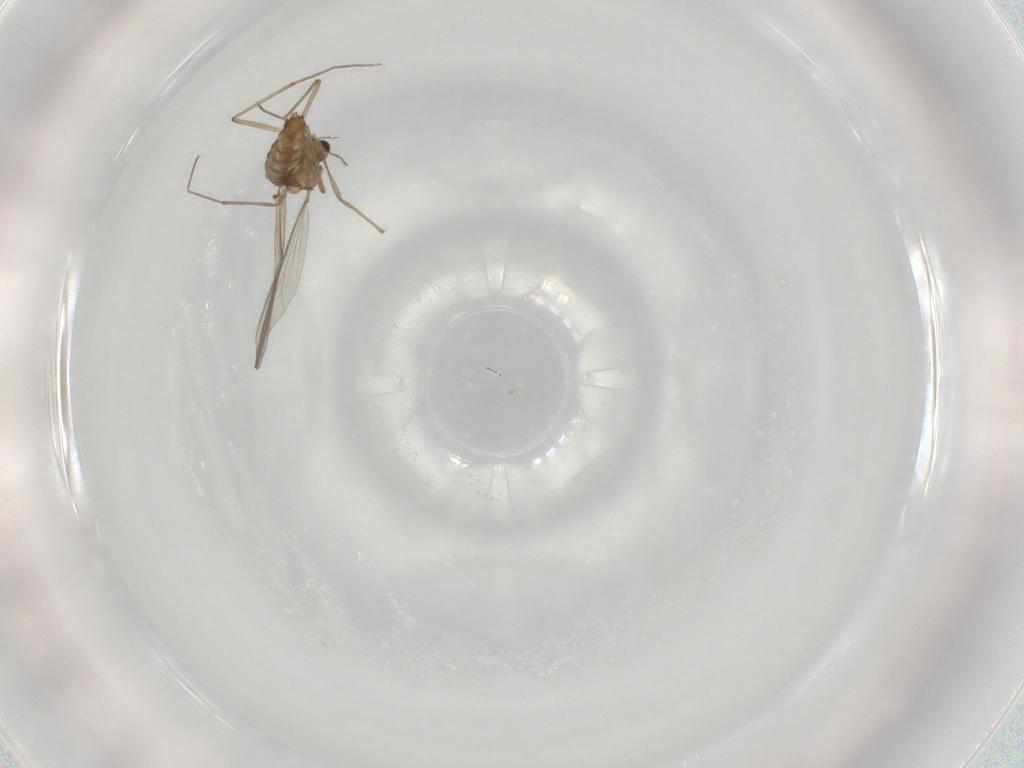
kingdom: Animalia
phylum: Arthropoda
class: Insecta
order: Diptera
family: Chironomidae
